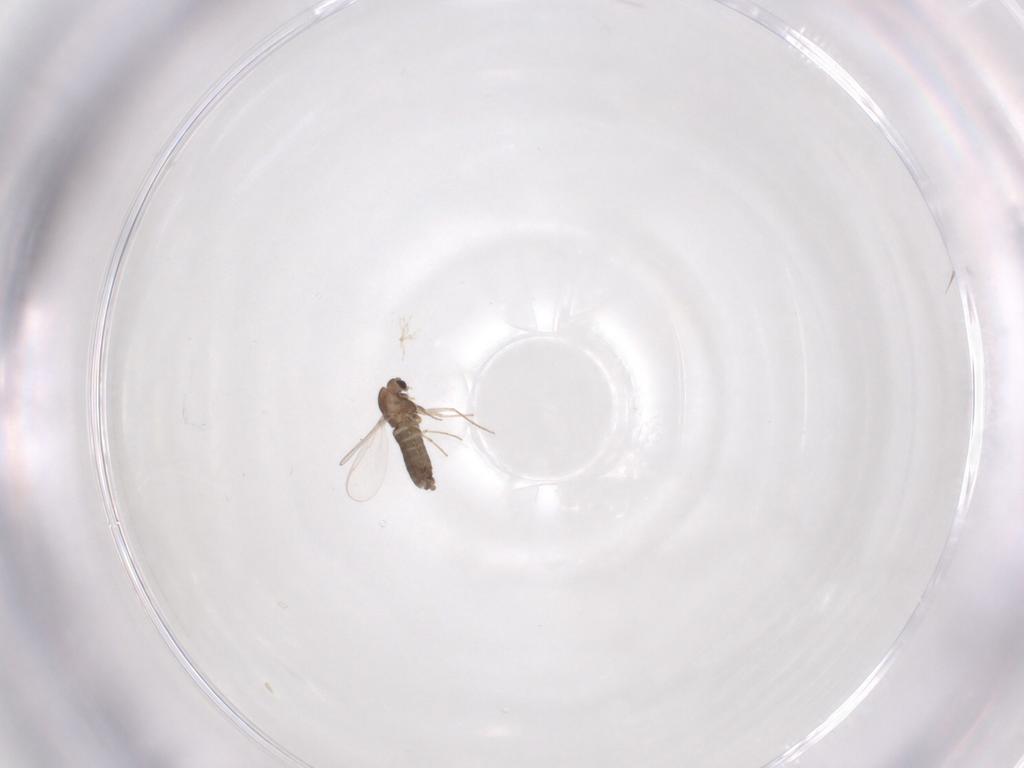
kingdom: Animalia
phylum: Arthropoda
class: Insecta
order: Diptera
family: Chironomidae
